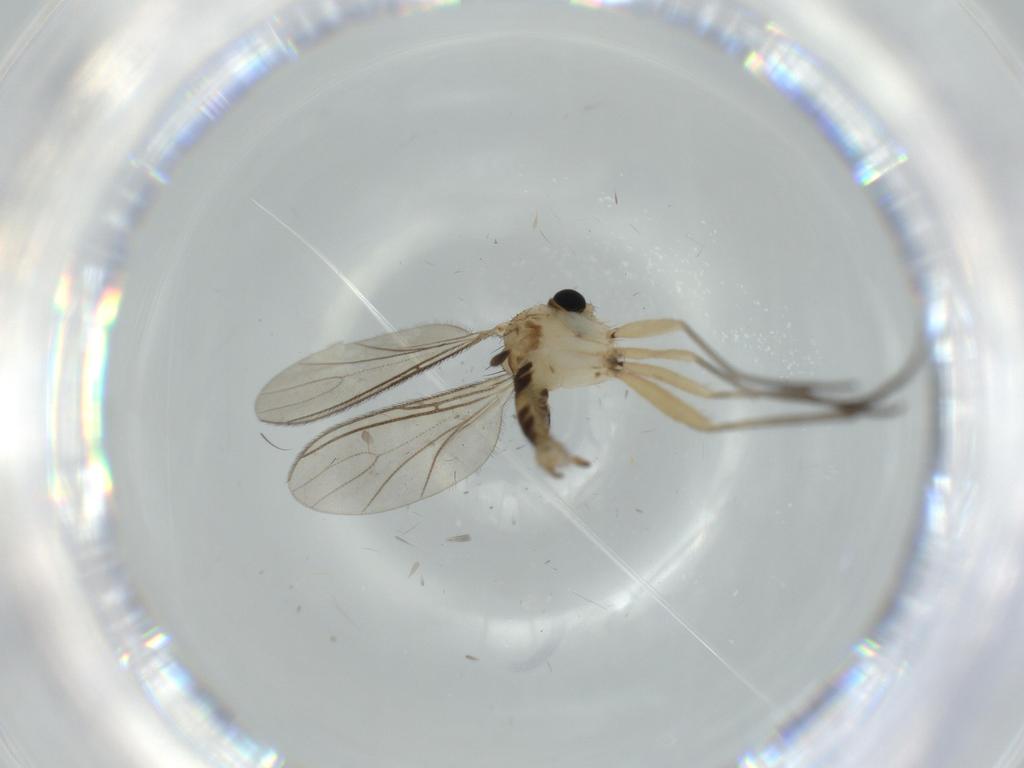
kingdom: Animalia
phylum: Arthropoda
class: Insecta
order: Diptera
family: Sciaridae
